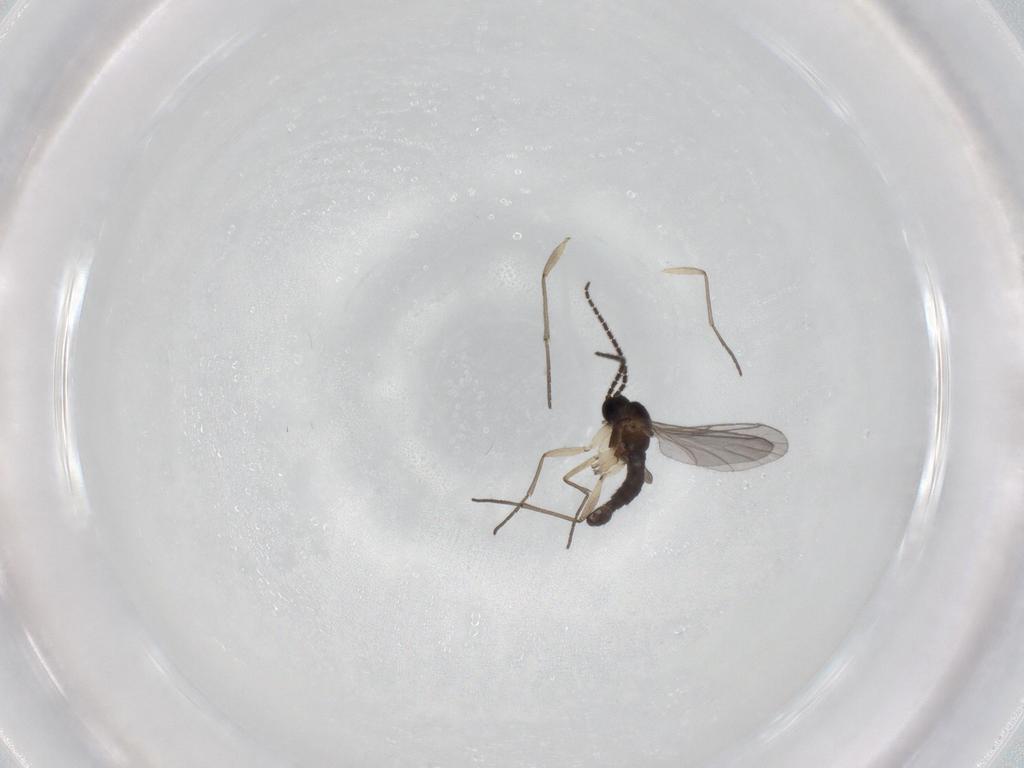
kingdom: Animalia
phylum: Arthropoda
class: Insecta
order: Diptera
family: Sciaridae
